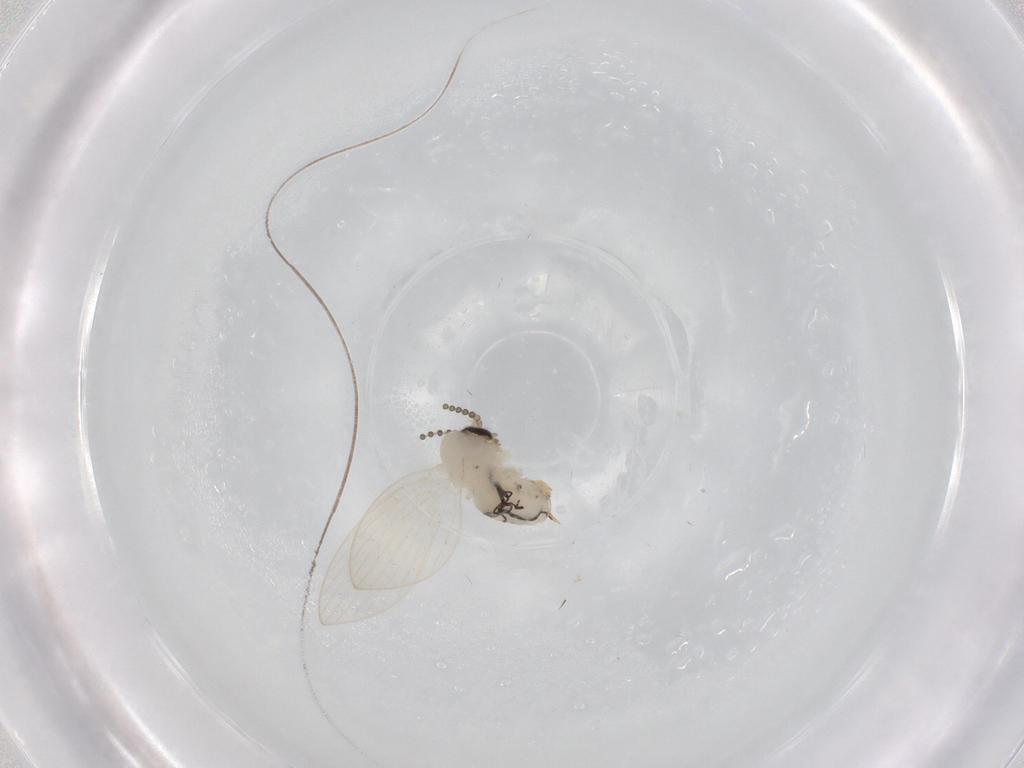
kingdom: Animalia
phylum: Arthropoda
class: Insecta
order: Diptera
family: Psychodidae
